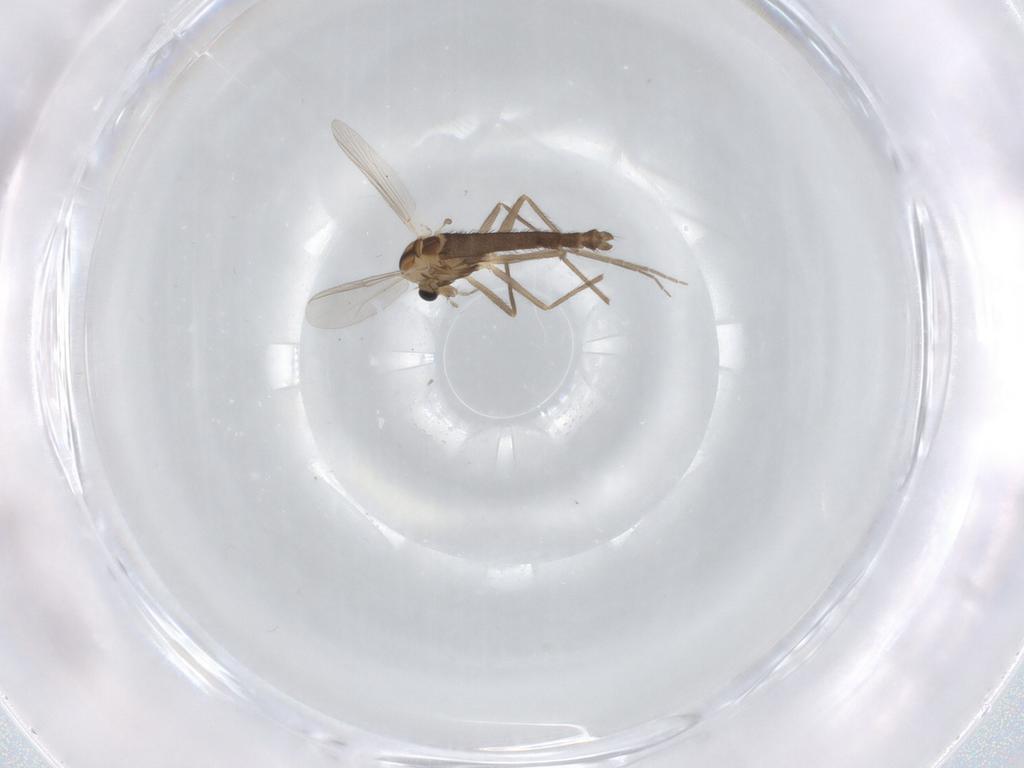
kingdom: Animalia
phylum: Arthropoda
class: Insecta
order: Diptera
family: Chironomidae
